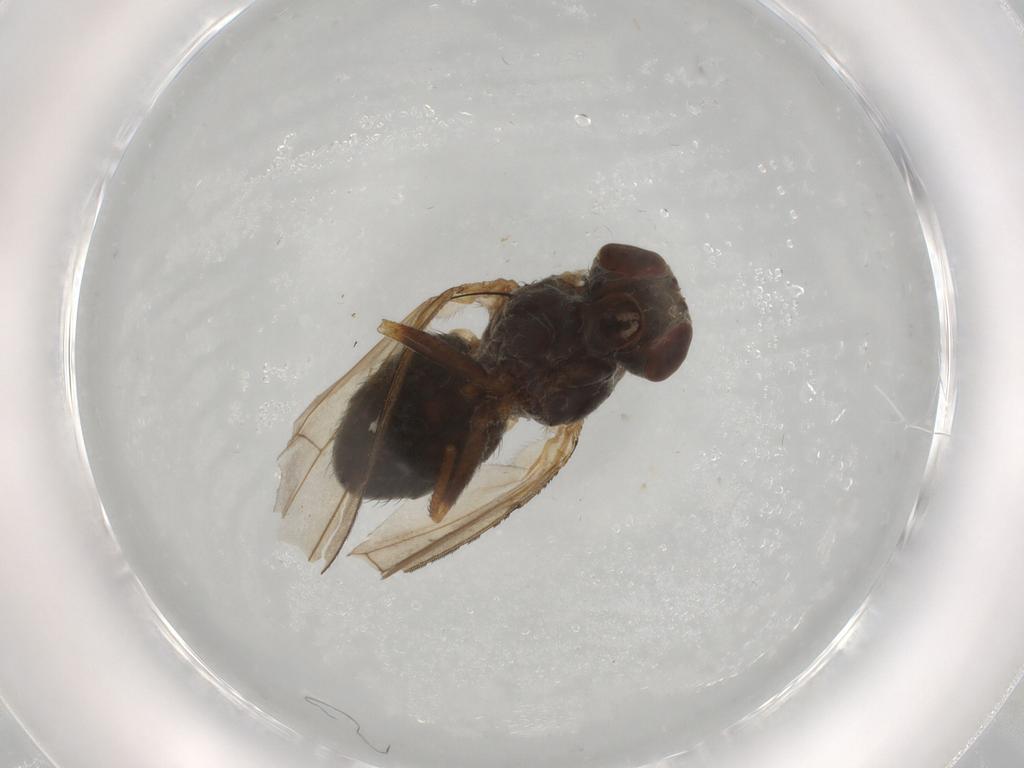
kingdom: Animalia
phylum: Arthropoda
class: Insecta
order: Diptera
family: Ephydridae
